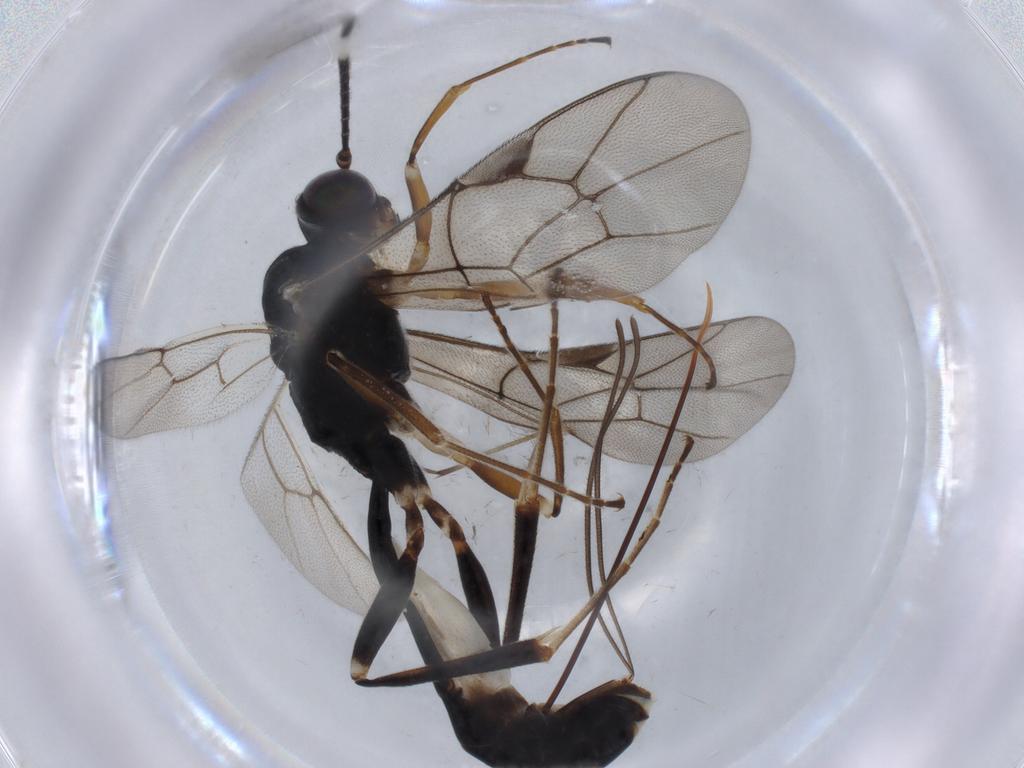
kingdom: Animalia
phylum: Arthropoda
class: Insecta
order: Hymenoptera
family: Bethylidae
